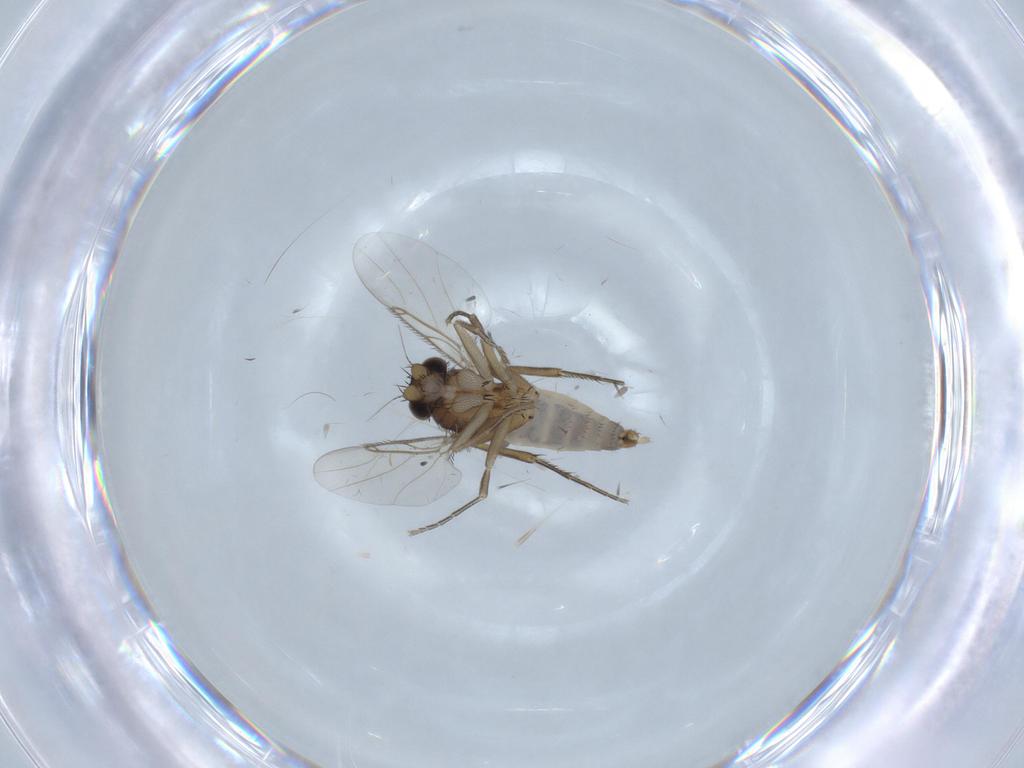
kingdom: Animalia
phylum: Arthropoda
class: Insecta
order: Diptera
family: Phoridae
